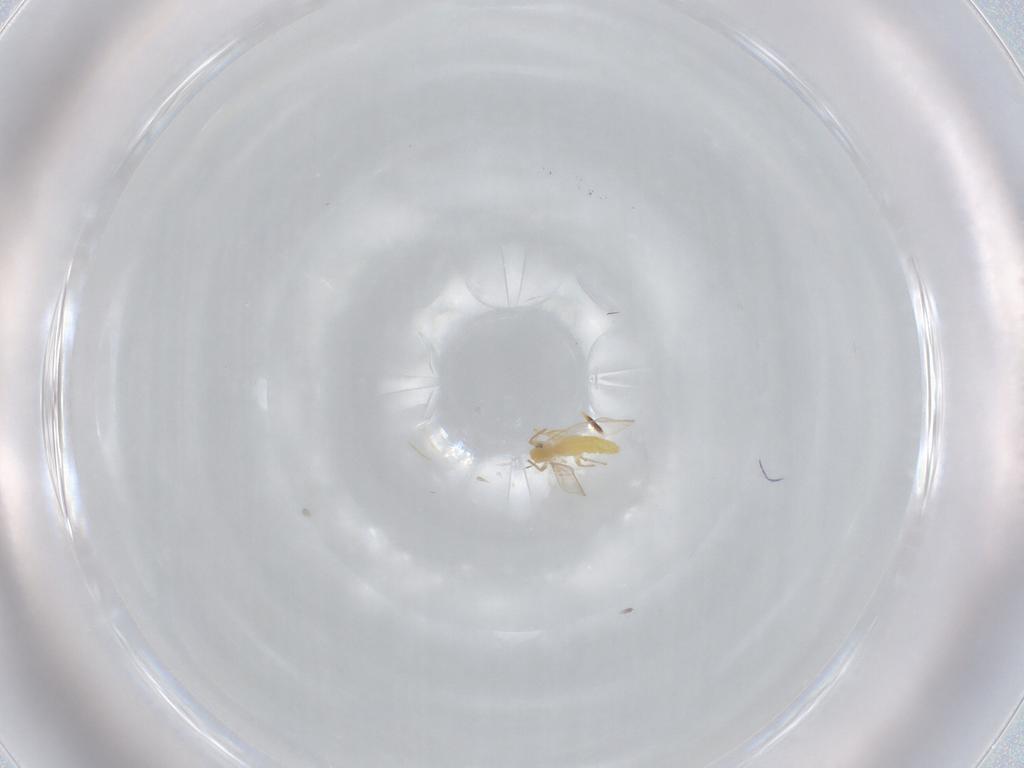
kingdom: Animalia
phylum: Arthropoda
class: Insecta
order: Diptera
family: Chironomidae
